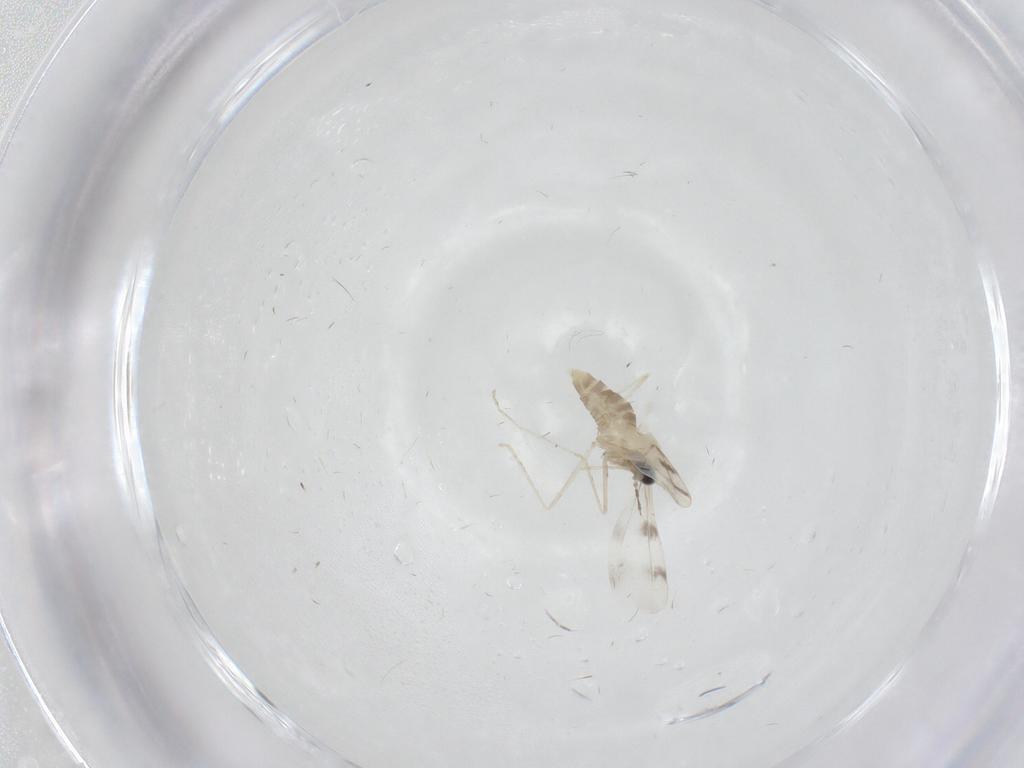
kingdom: Animalia
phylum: Arthropoda
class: Insecta
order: Diptera
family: Cecidomyiidae
